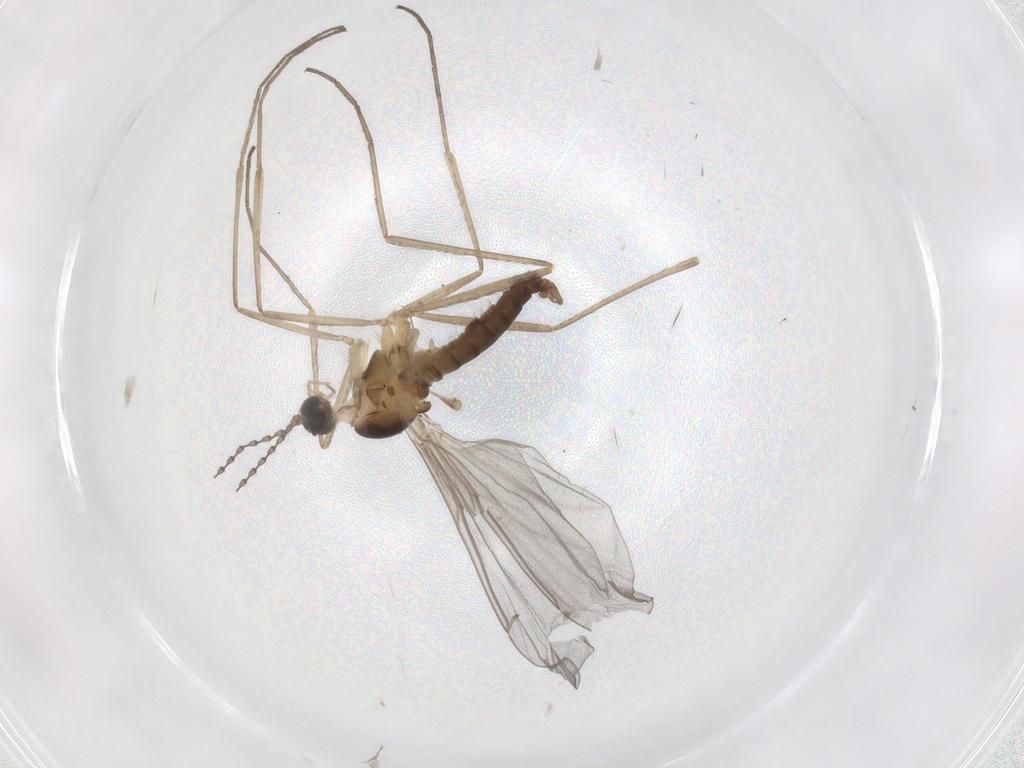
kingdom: Animalia
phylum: Arthropoda
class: Insecta
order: Diptera
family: Cecidomyiidae
